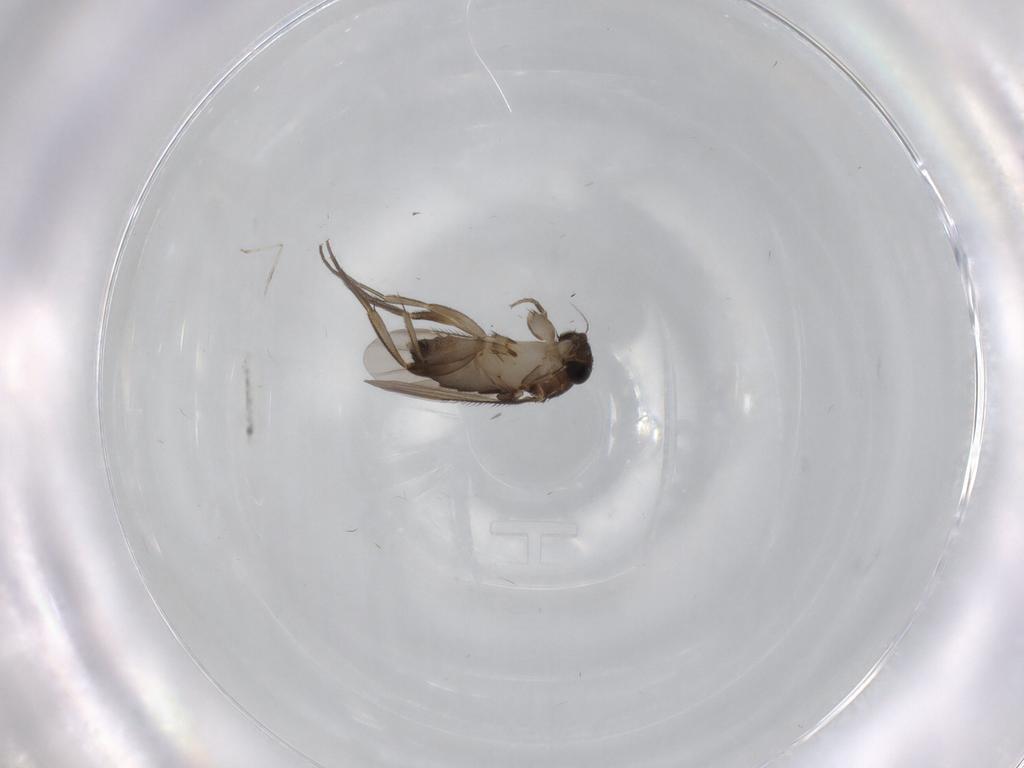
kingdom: Animalia
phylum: Arthropoda
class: Insecta
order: Diptera
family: Phoridae
